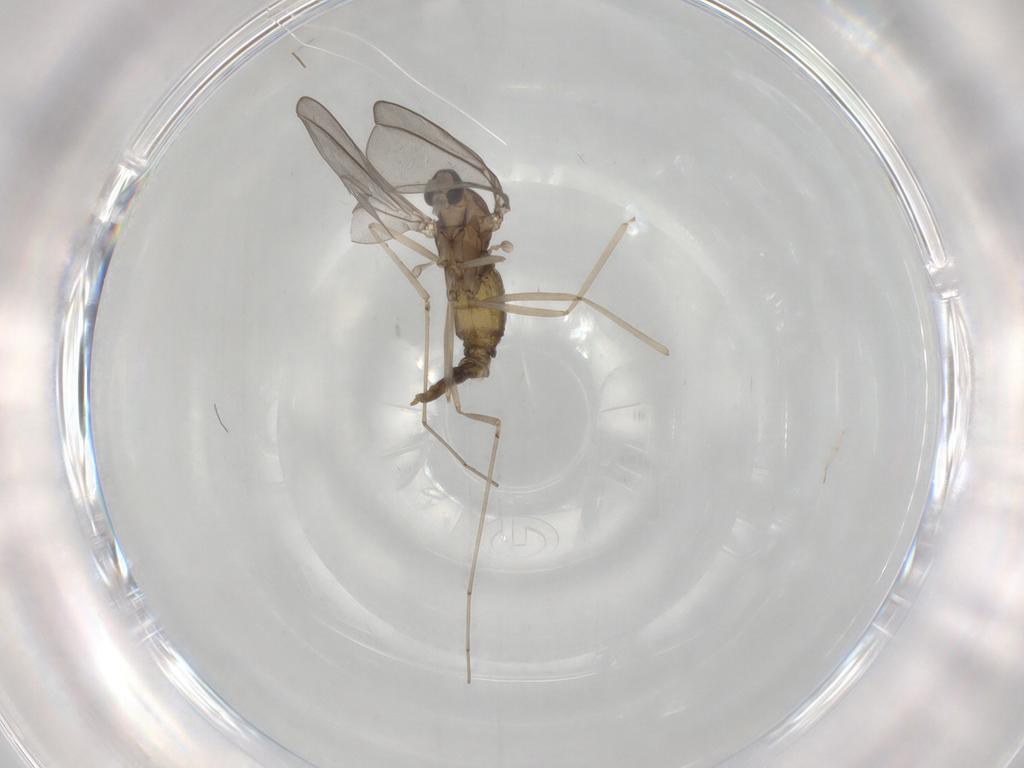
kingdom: Animalia
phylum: Arthropoda
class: Insecta
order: Diptera
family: Cecidomyiidae
